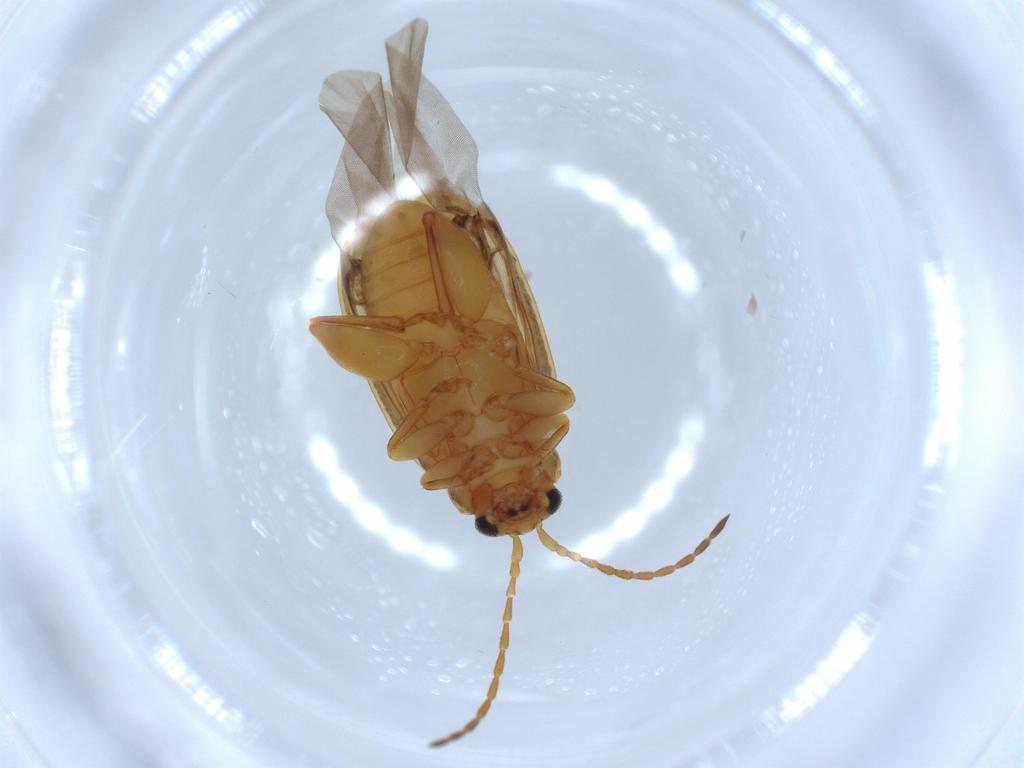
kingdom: Animalia
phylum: Arthropoda
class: Insecta
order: Coleoptera
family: Chrysomelidae
